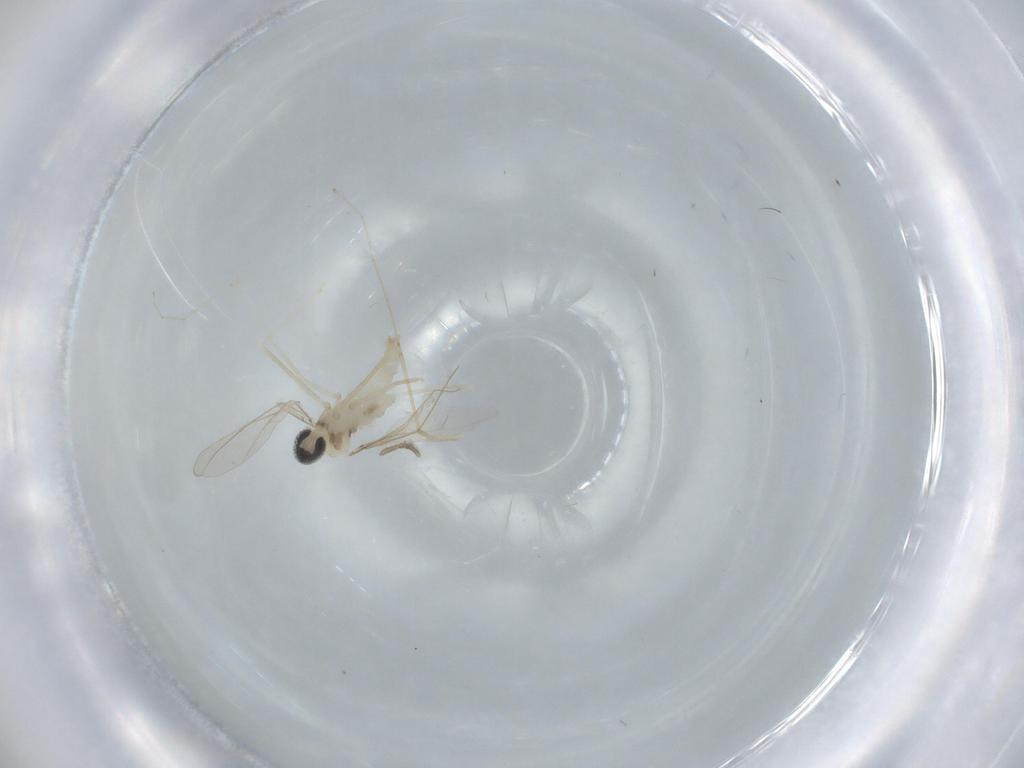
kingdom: Animalia
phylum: Arthropoda
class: Insecta
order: Diptera
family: Cecidomyiidae
